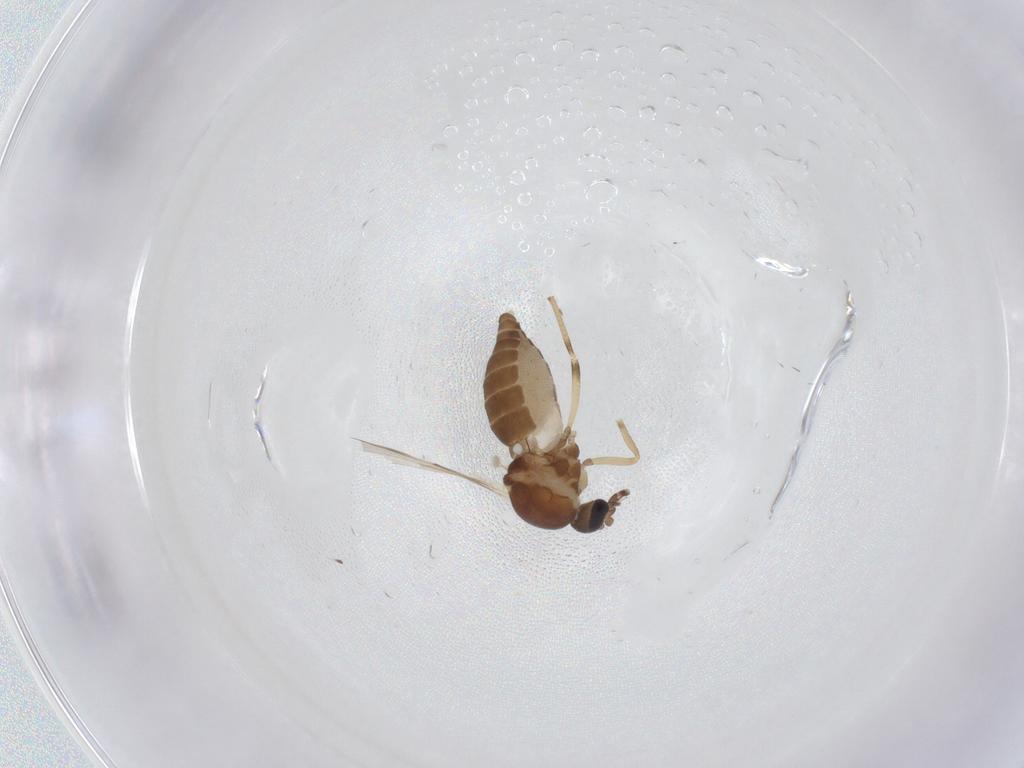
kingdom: Animalia
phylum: Arthropoda
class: Insecta
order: Diptera
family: Ceratopogonidae
